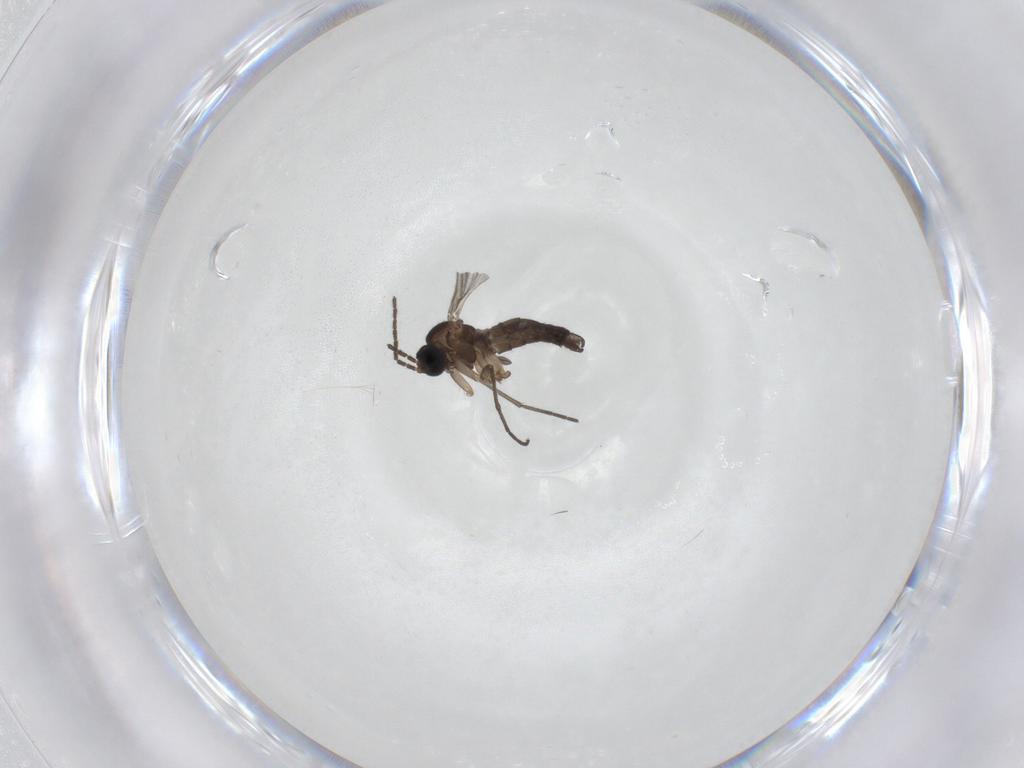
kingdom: Animalia
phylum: Arthropoda
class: Insecta
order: Diptera
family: Sciaridae
